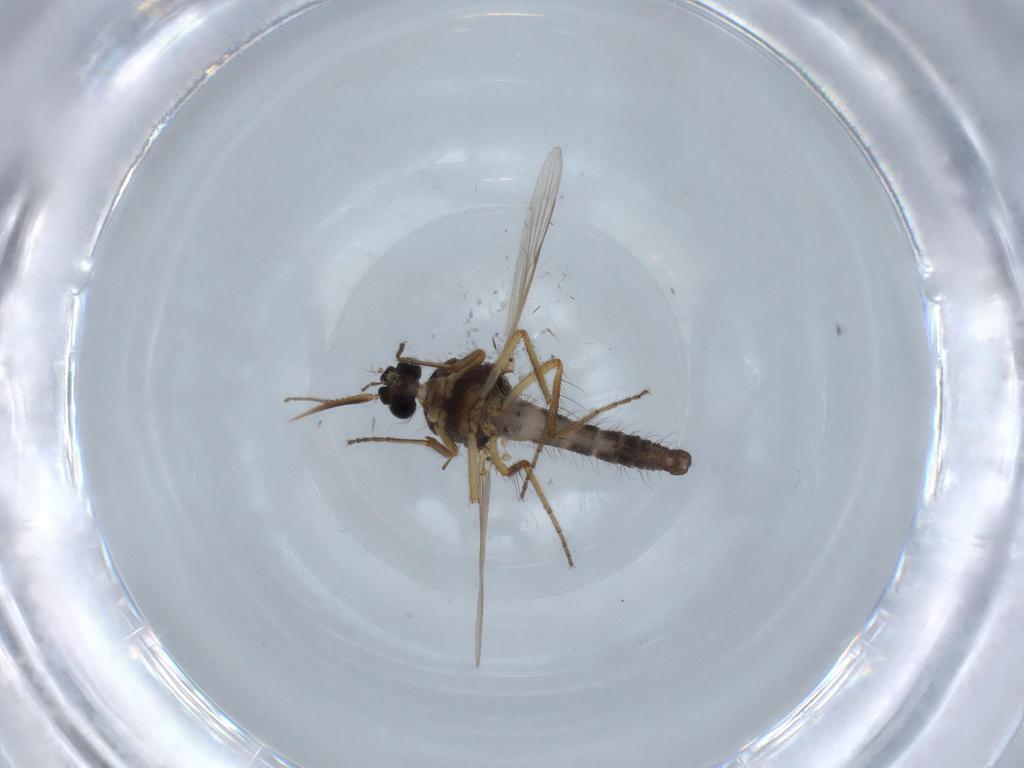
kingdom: Animalia
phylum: Arthropoda
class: Insecta
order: Diptera
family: Ceratopogonidae
